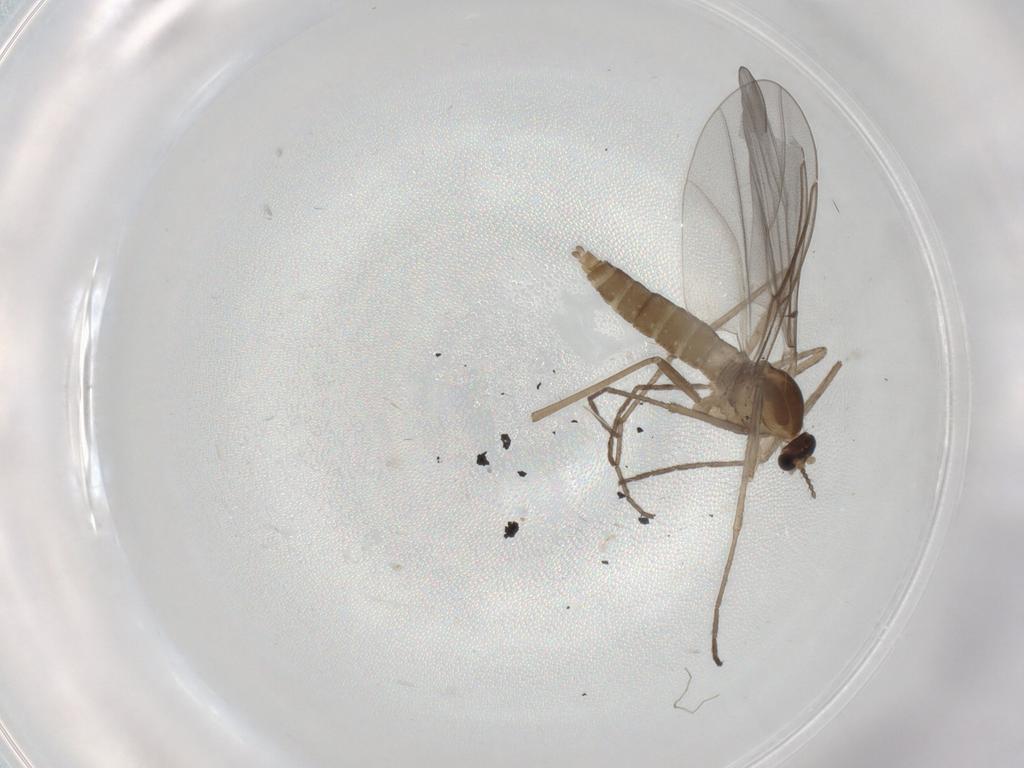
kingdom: Animalia
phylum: Arthropoda
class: Insecta
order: Diptera
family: Cecidomyiidae
